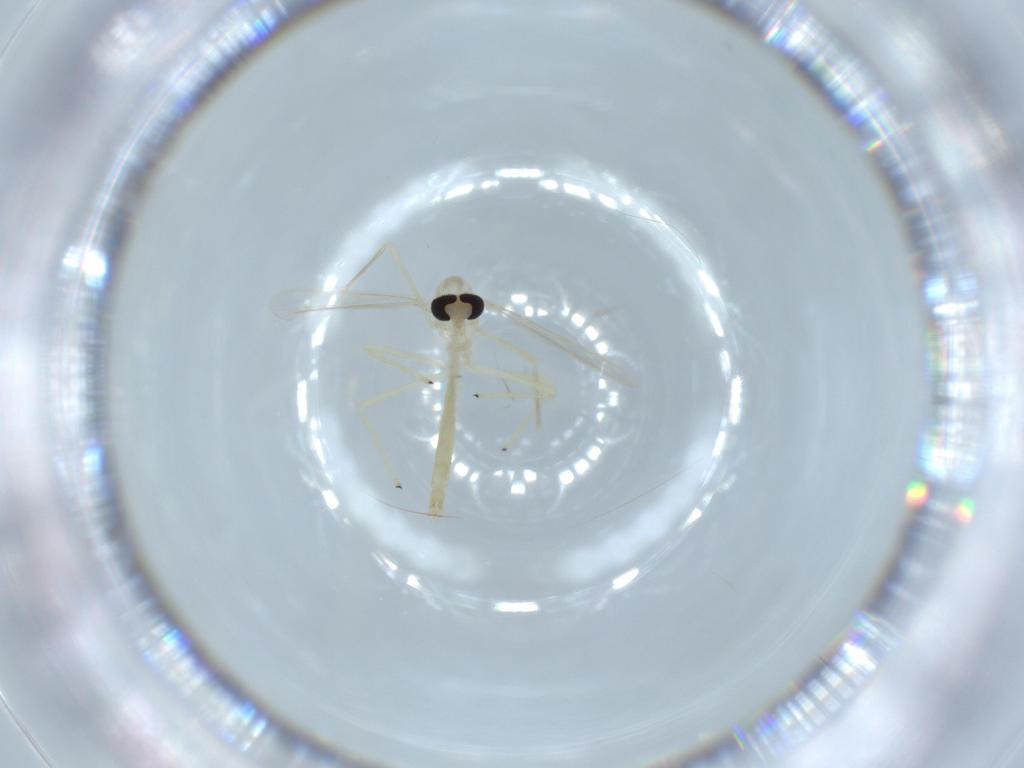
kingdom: Animalia
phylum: Arthropoda
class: Insecta
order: Diptera
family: Chironomidae
